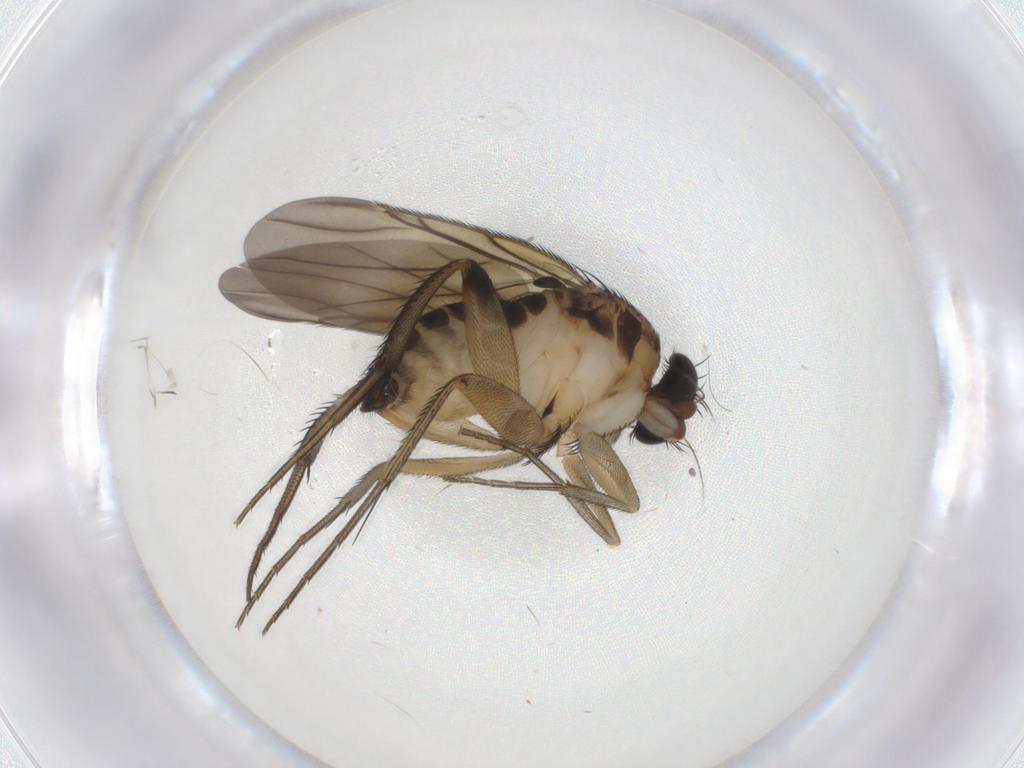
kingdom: Animalia
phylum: Arthropoda
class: Insecta
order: Diptera
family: Phoridae
